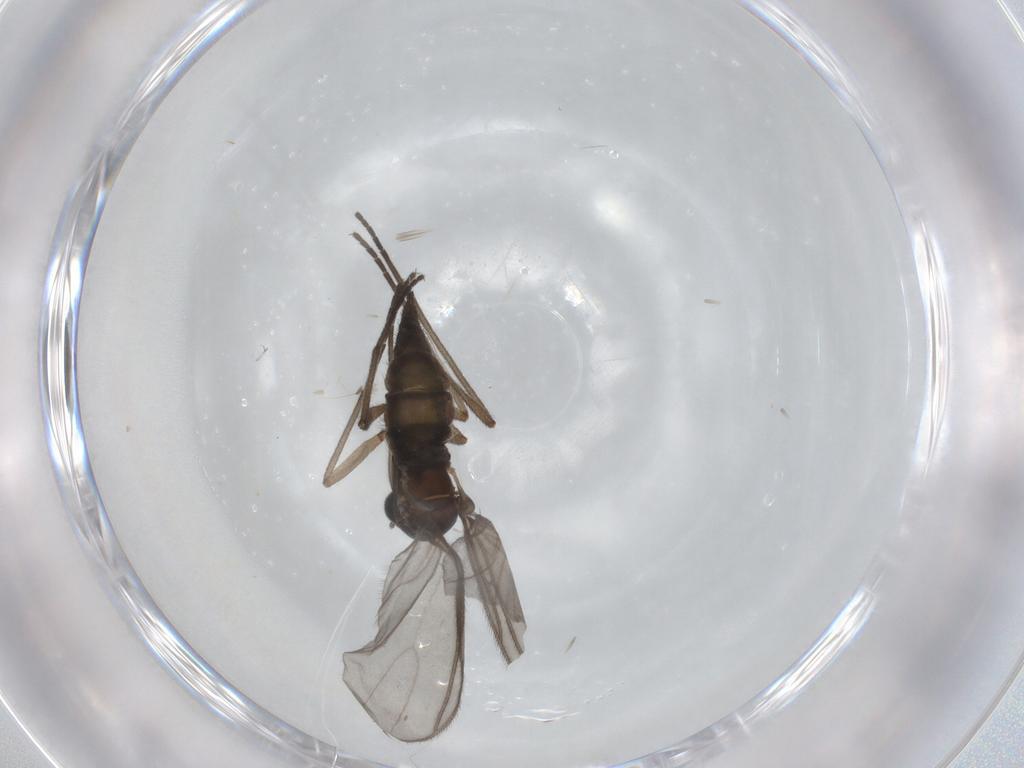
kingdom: Animalia
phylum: Arthropoda
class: Insecta
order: Diptera
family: Sciaridae
